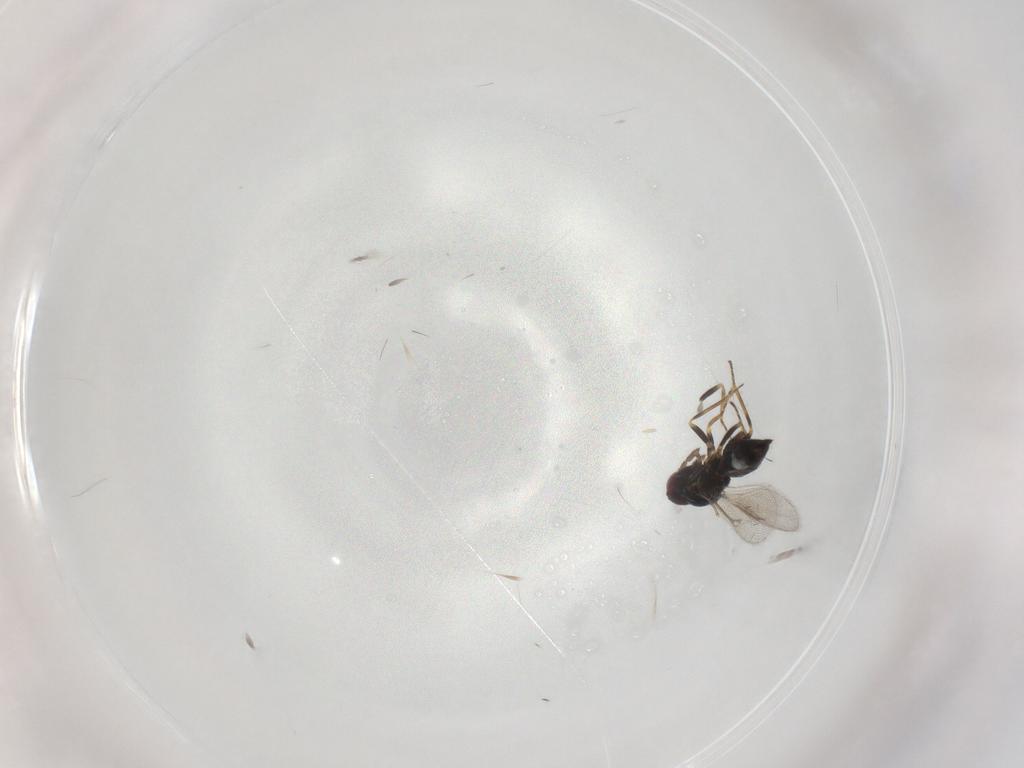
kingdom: Animalia
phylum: Arthropoda
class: Insecta
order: Hymenoptera
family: Eulophidae
